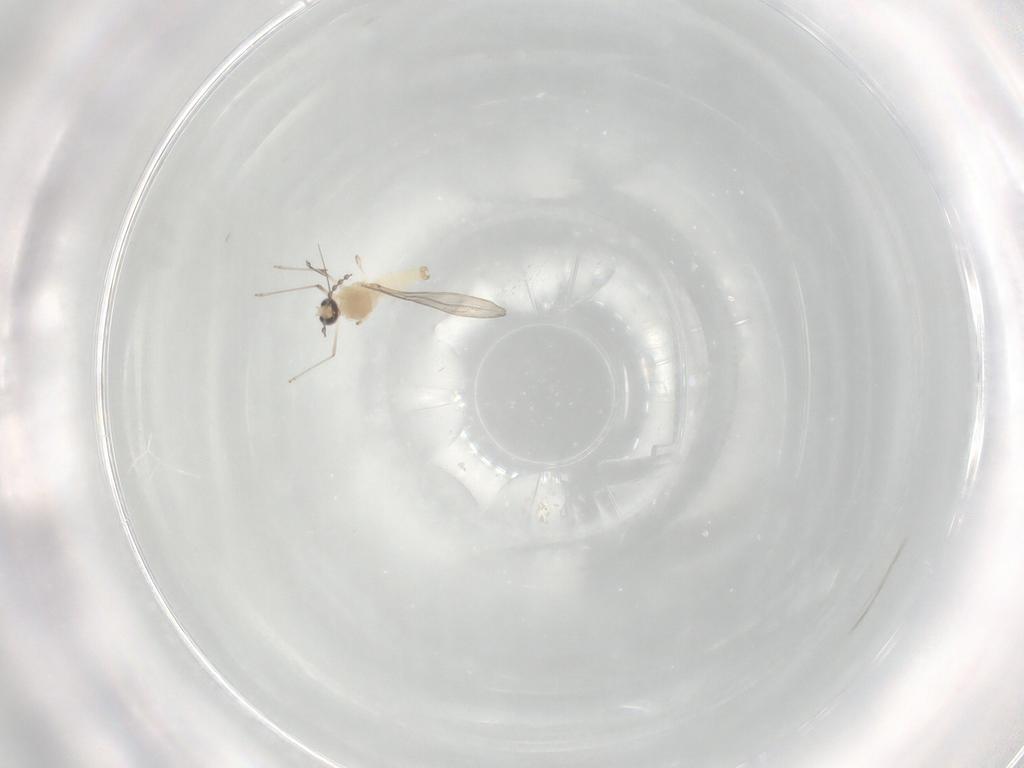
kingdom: Animalia
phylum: Arthropoda
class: Insecta
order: Diptera
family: Cecidomyiidae
